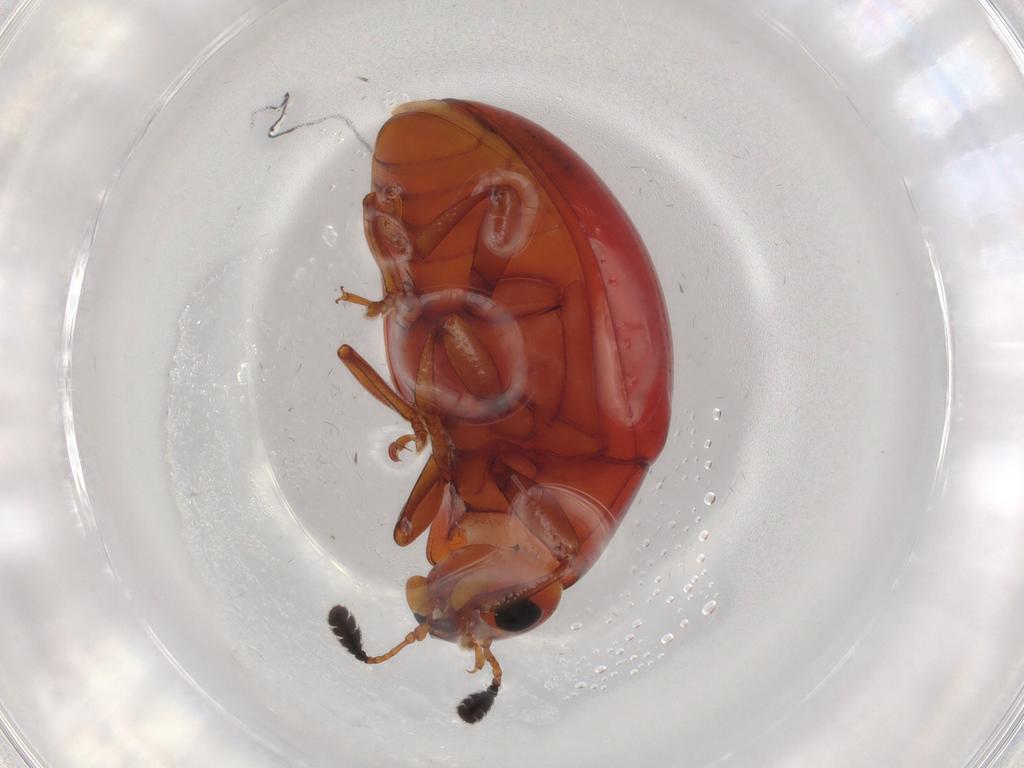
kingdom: Animalia
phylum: Arthropoda
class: Insecta
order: Coleoptera
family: Erotylidae
